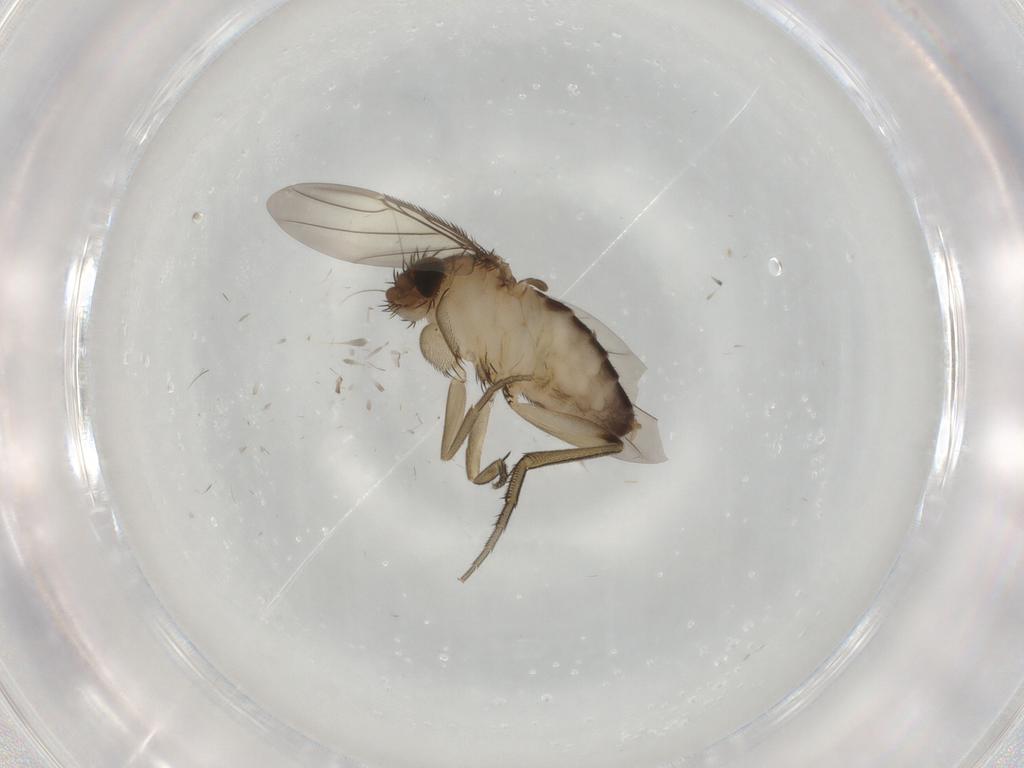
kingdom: Animalia
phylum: Arthropoda
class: Insecta
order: Diptera
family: Phoridae
